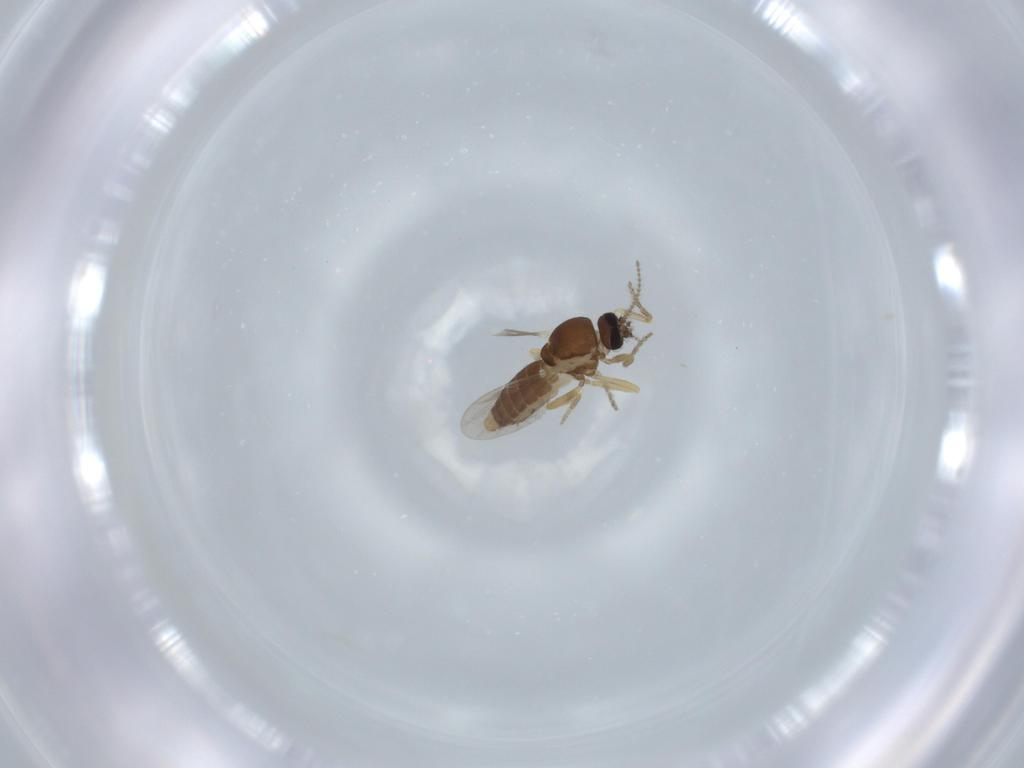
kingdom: Animalia
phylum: Arthropoda
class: Insecta
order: Diptera
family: Ceratopogonidae
